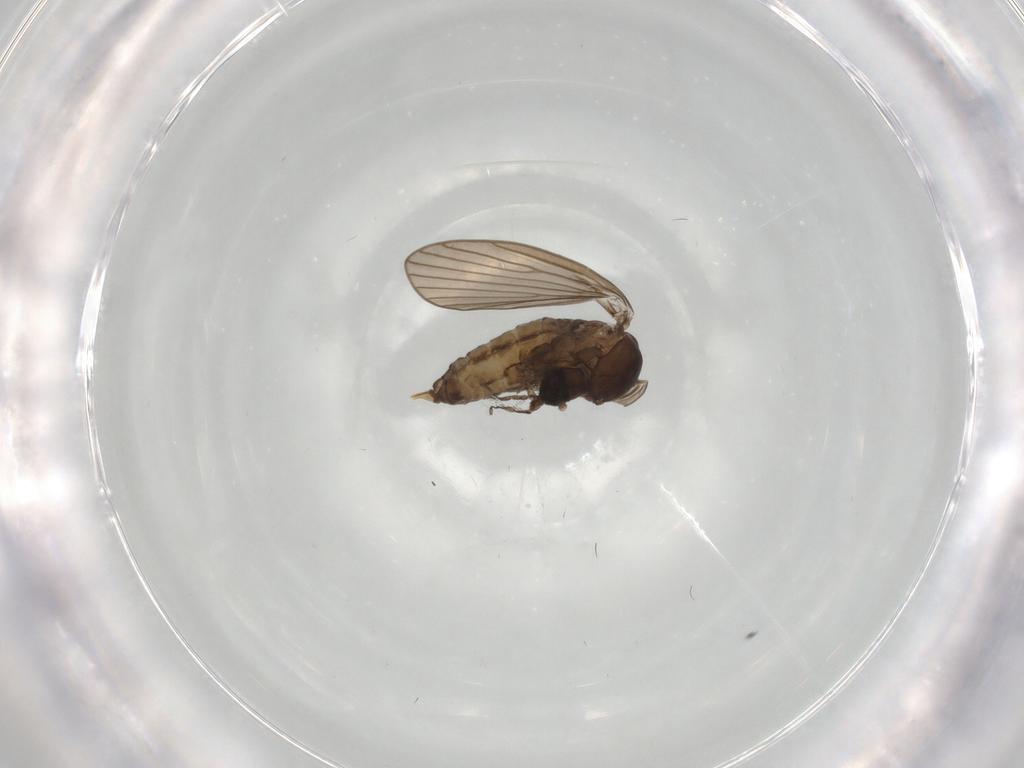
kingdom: Animalia
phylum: Arthropoda
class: Insecta
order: Diptera
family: Psychodidae
